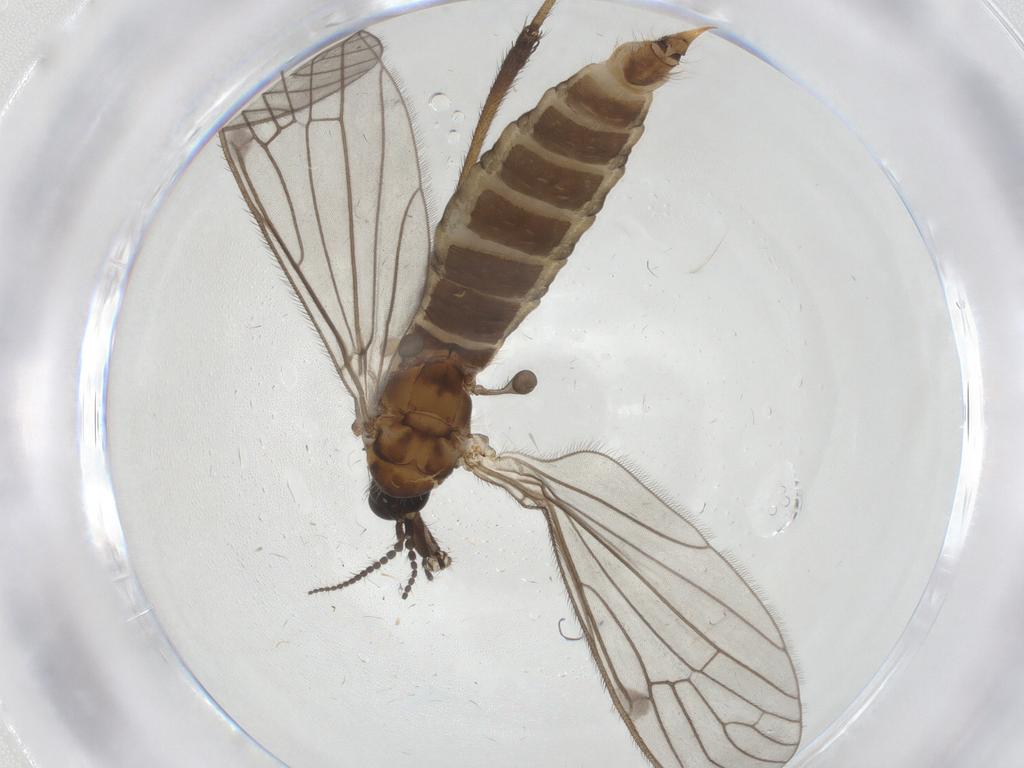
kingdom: Animalia
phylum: Arthropoda
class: Insecta
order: Diptera
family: Limoniidae
